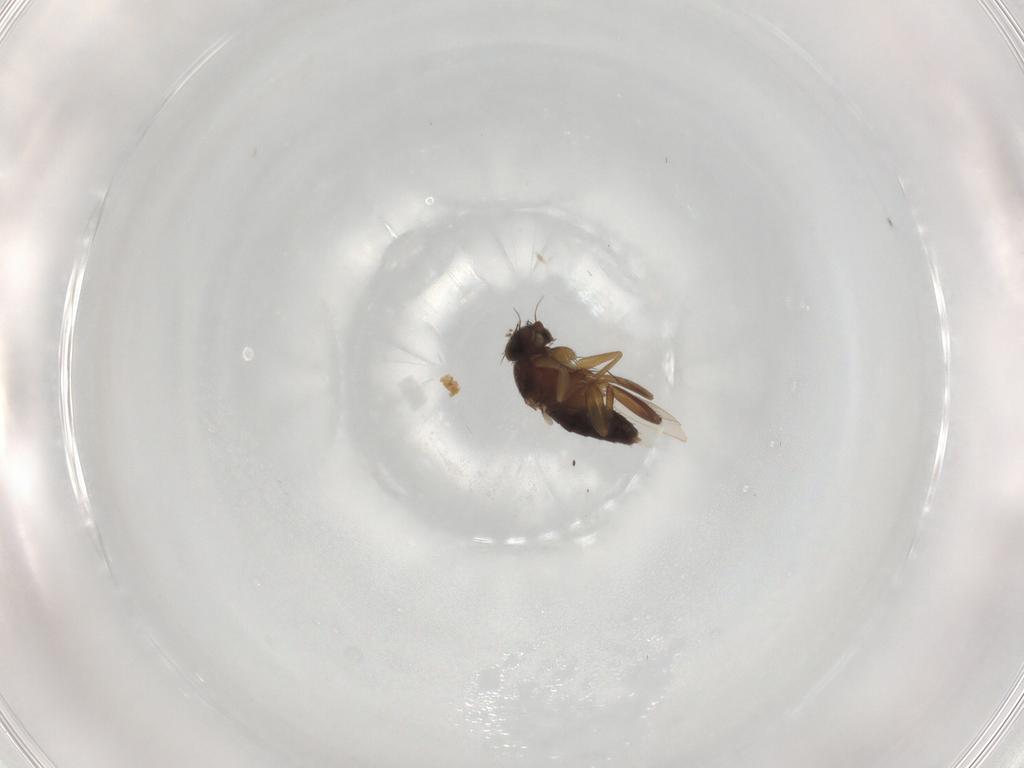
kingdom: Animalia
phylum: Arthropoda
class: Insecta
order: Diptera
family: Phoridae
